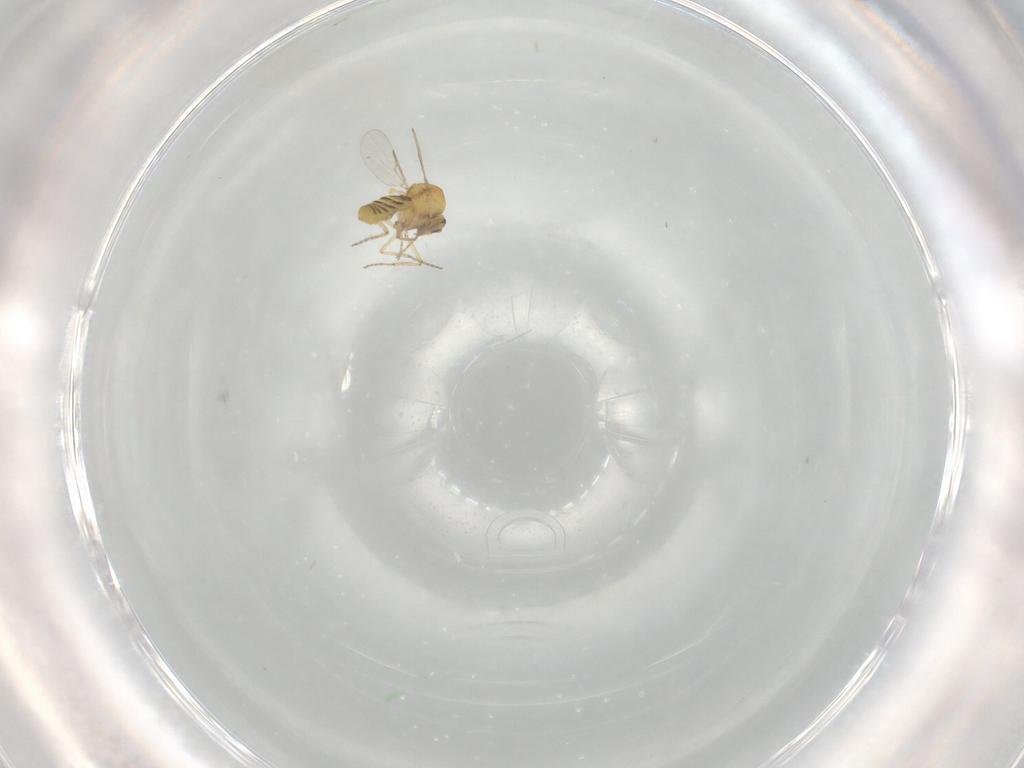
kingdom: Animalia
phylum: Arthropoda
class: Insecta
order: Diptera
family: Ceratopogonidae
